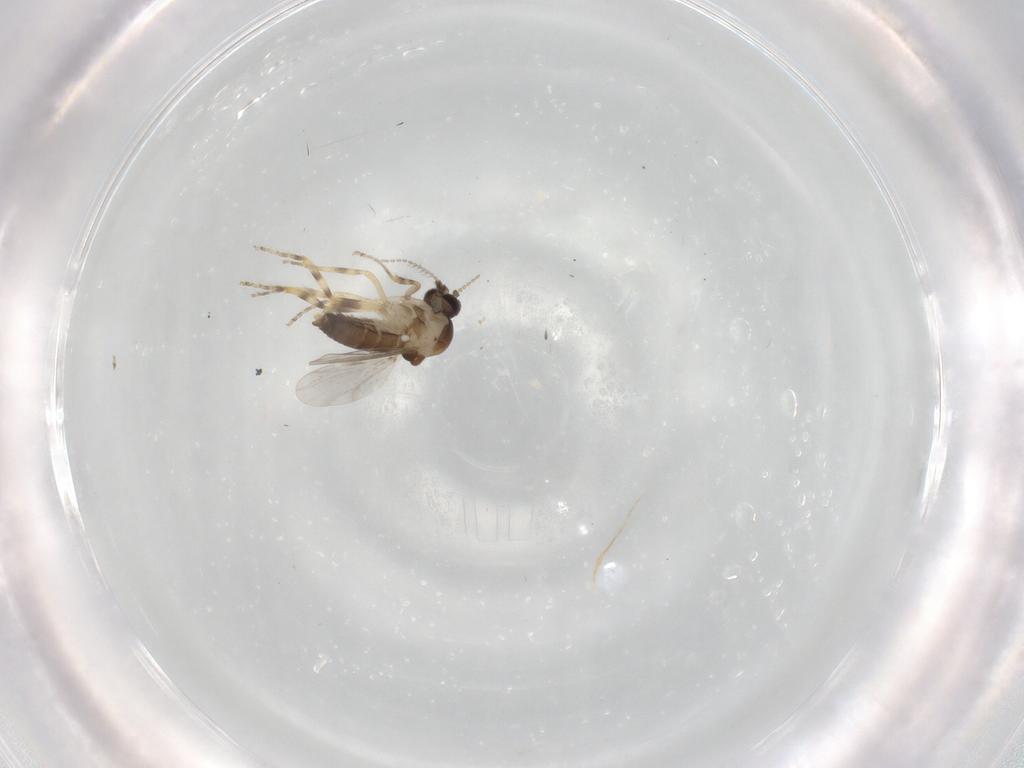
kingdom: Animalia
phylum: Arthropoda
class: Insecta
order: Diptera
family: Ceratopogonidae
